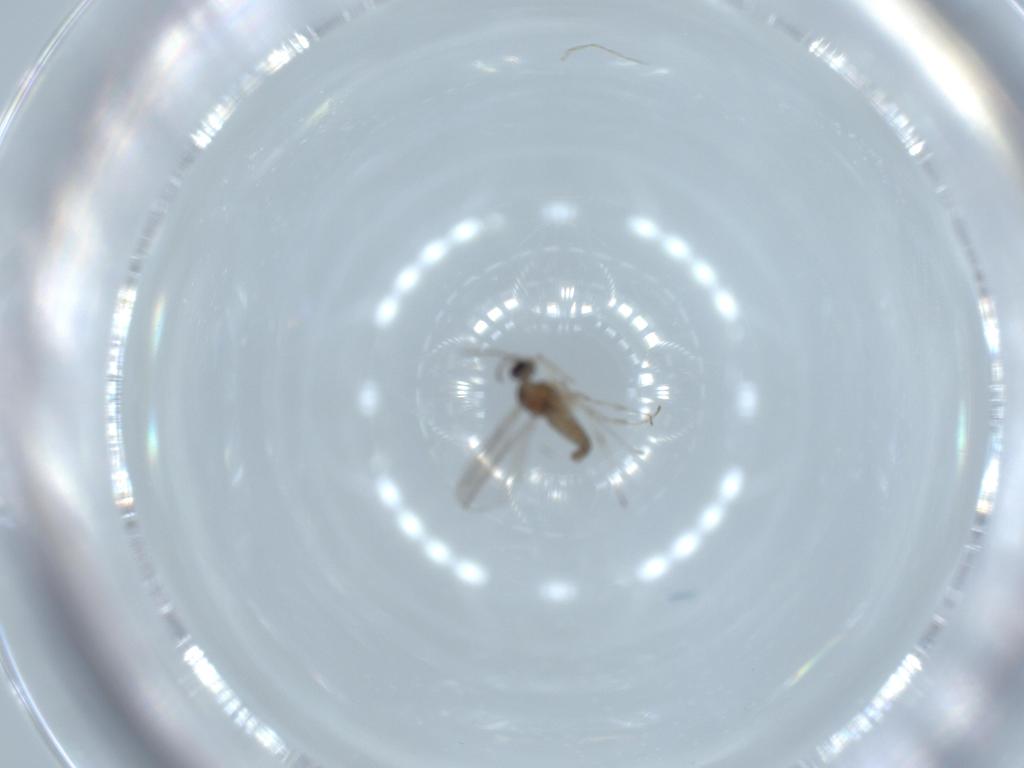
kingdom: Animalia
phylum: Arthropoda
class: Insecta
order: Diptera
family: Cecidomyiidae
